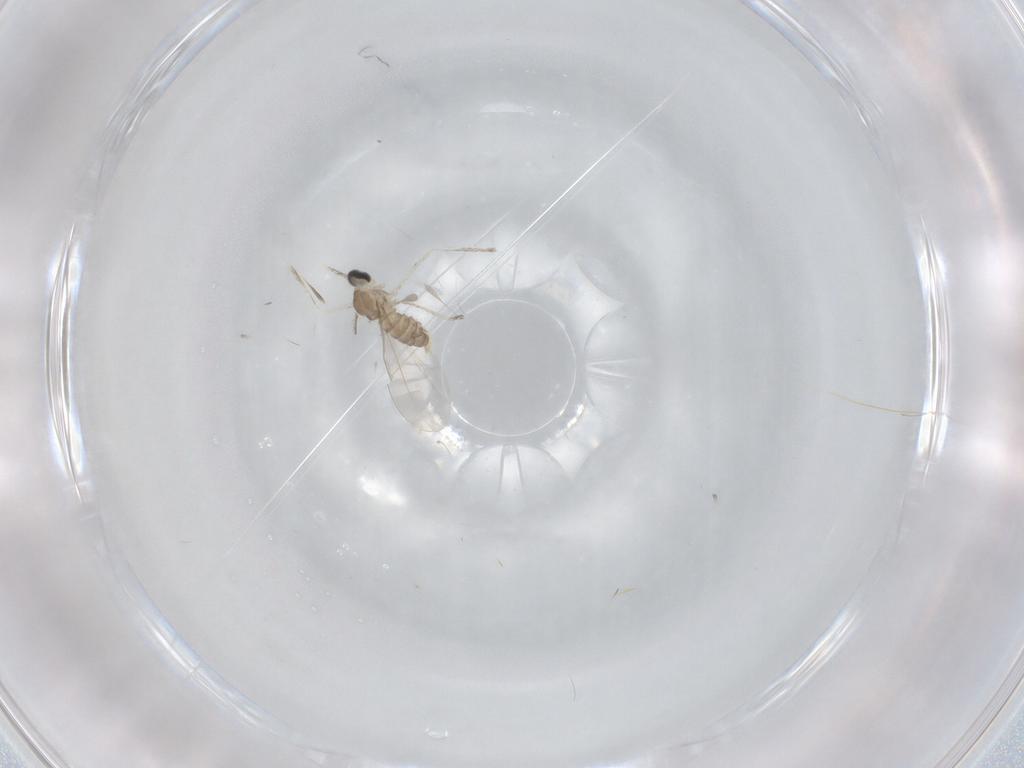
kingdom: Animalia
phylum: Arthropoda
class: Insecta
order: Diptera
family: Cecidomyiidae
